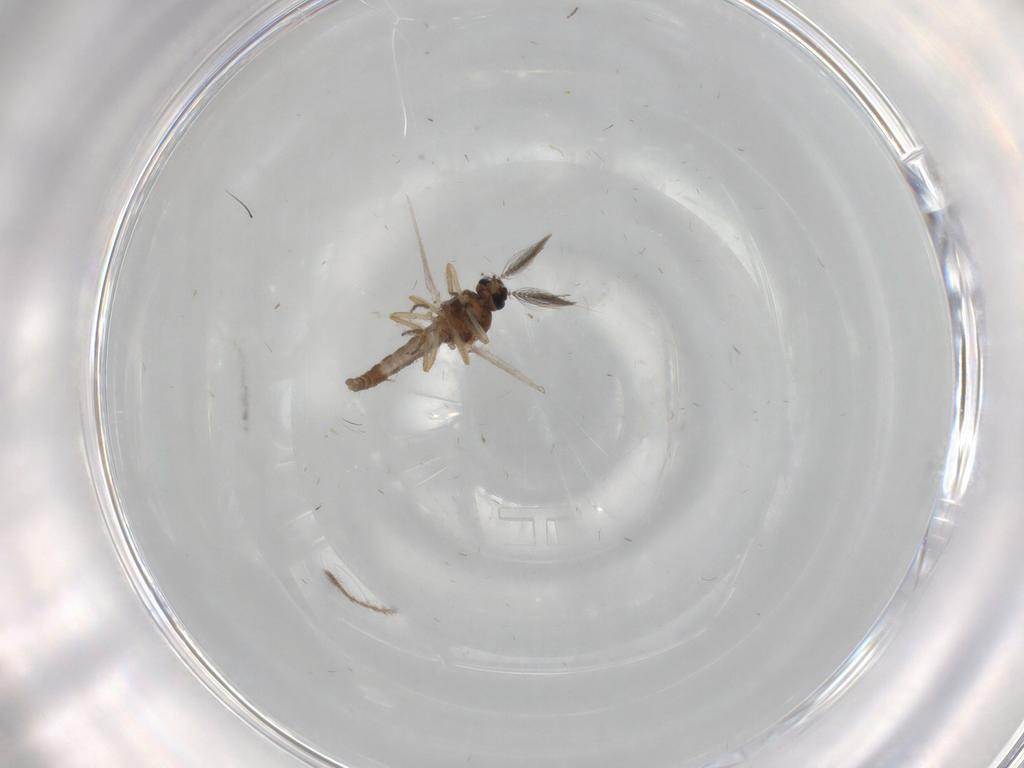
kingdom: Animalia
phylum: Arthropoda
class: Insecta
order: Diptera
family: Ceratopogonidae
